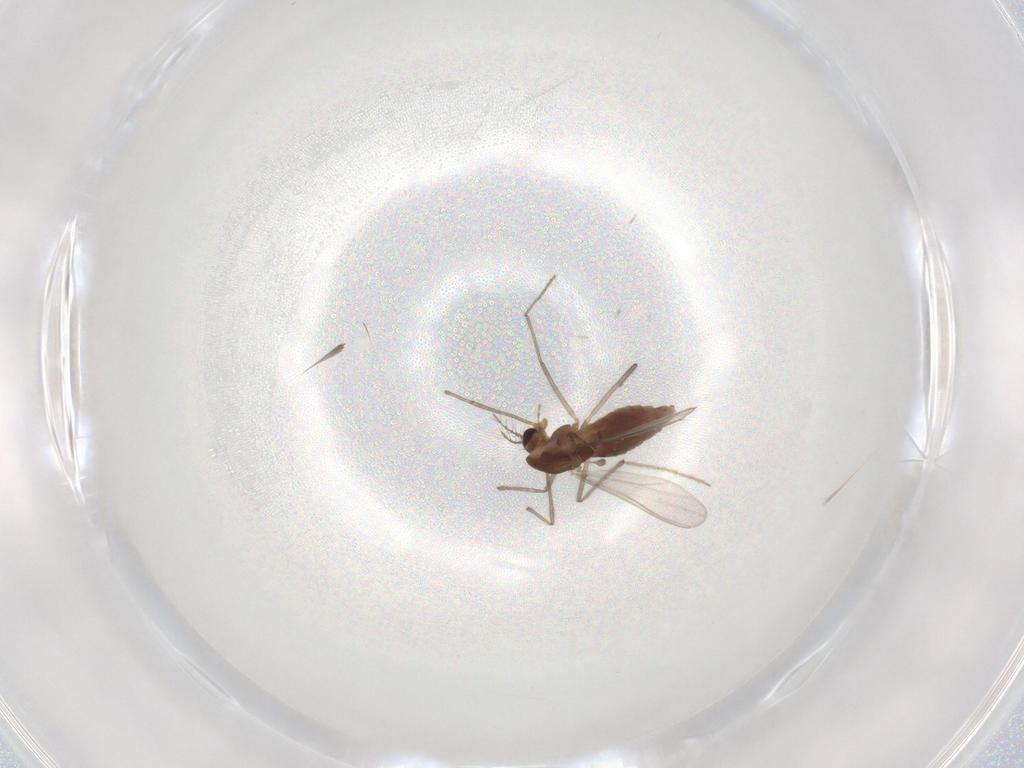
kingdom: Animalia
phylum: Arthropoda
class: Insecta
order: Diptera
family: Chironomidae
